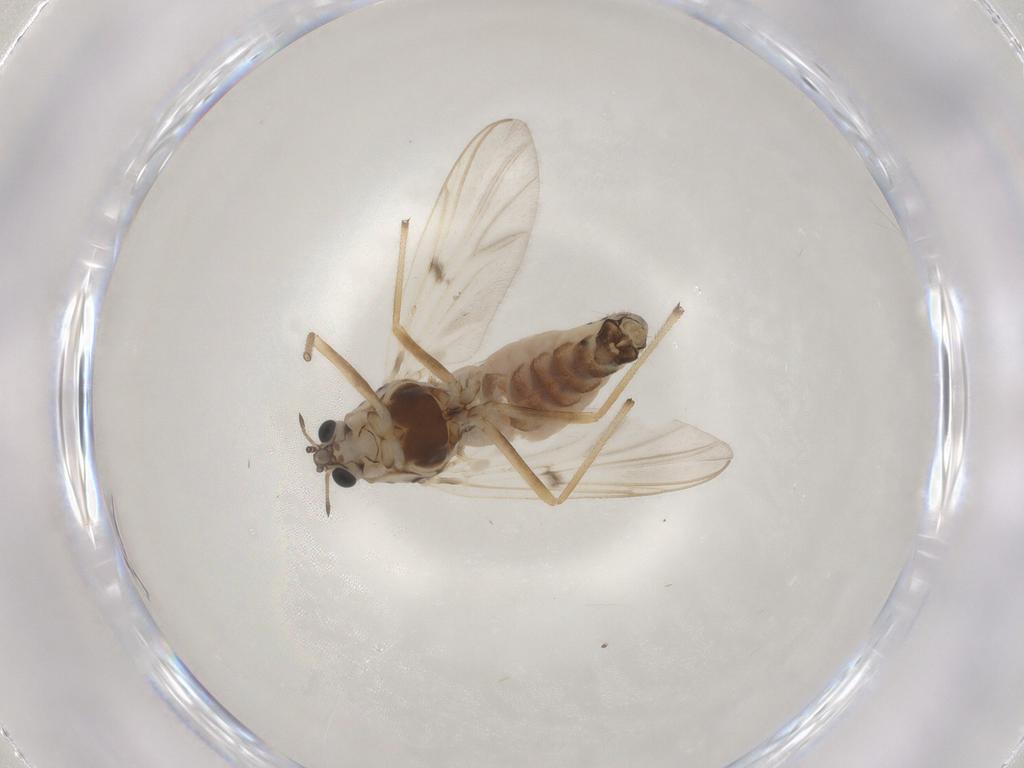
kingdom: Animalia
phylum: Arthropoda
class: Insecta
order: Diptera
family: Chironomidae
